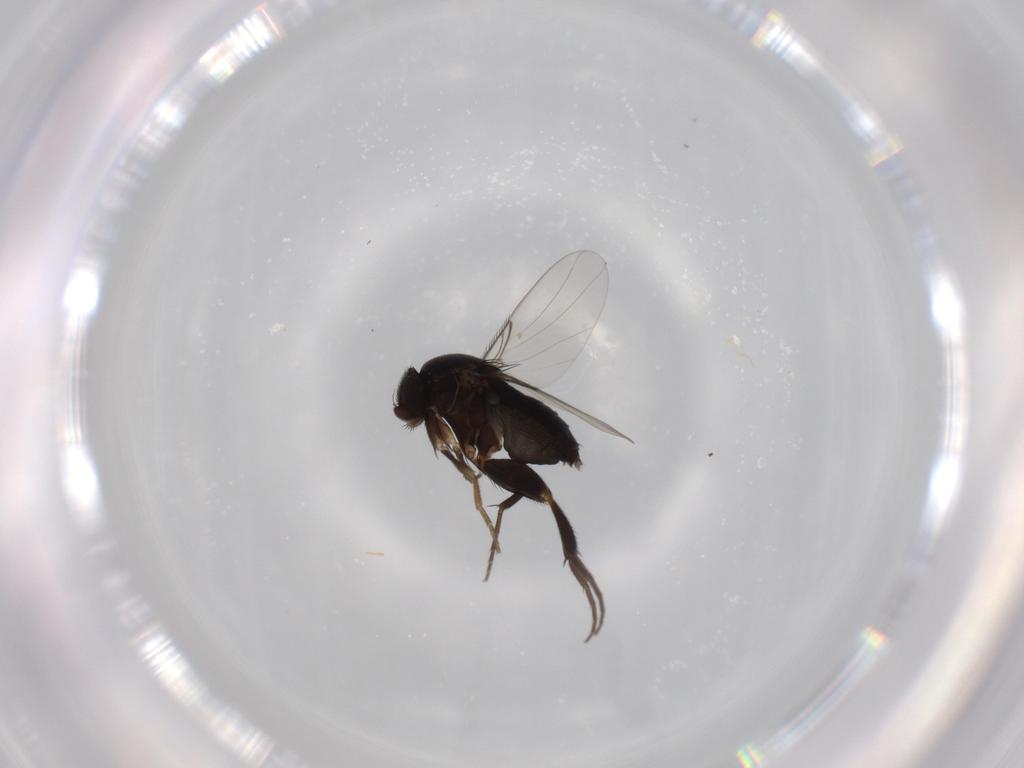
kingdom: Animalia
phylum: Arthropoda
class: Insecta
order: Diptera
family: Phoridae
